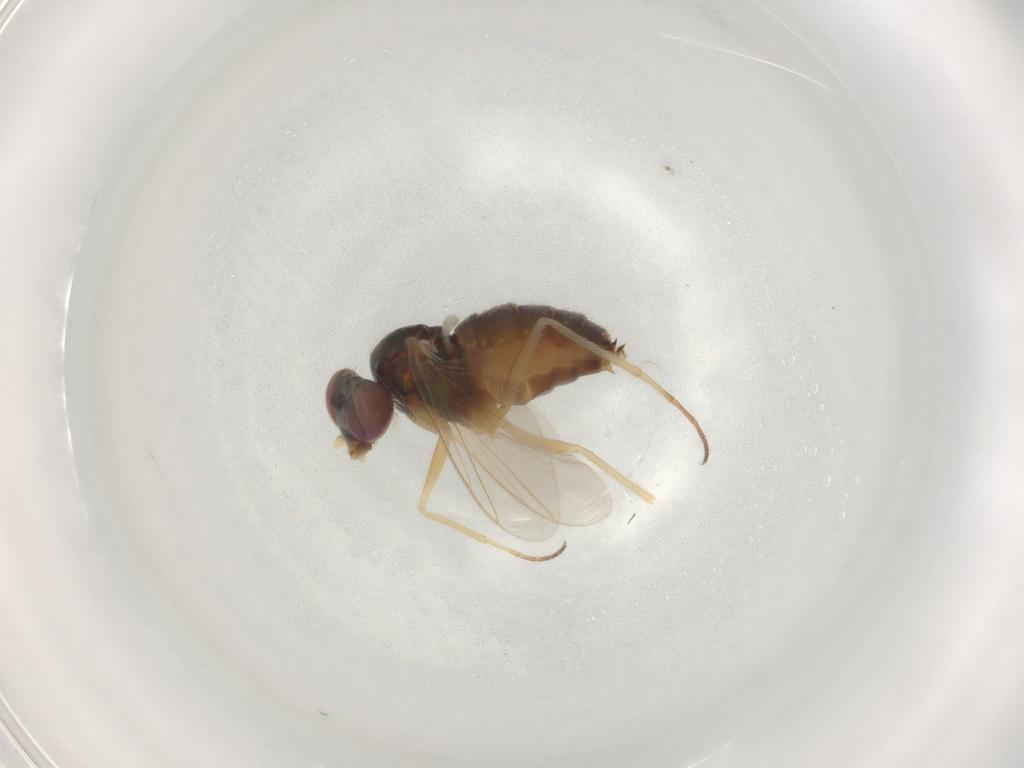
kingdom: Animalia
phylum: Arthropoda
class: Insecta
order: Diptera
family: Dolichopodidae
